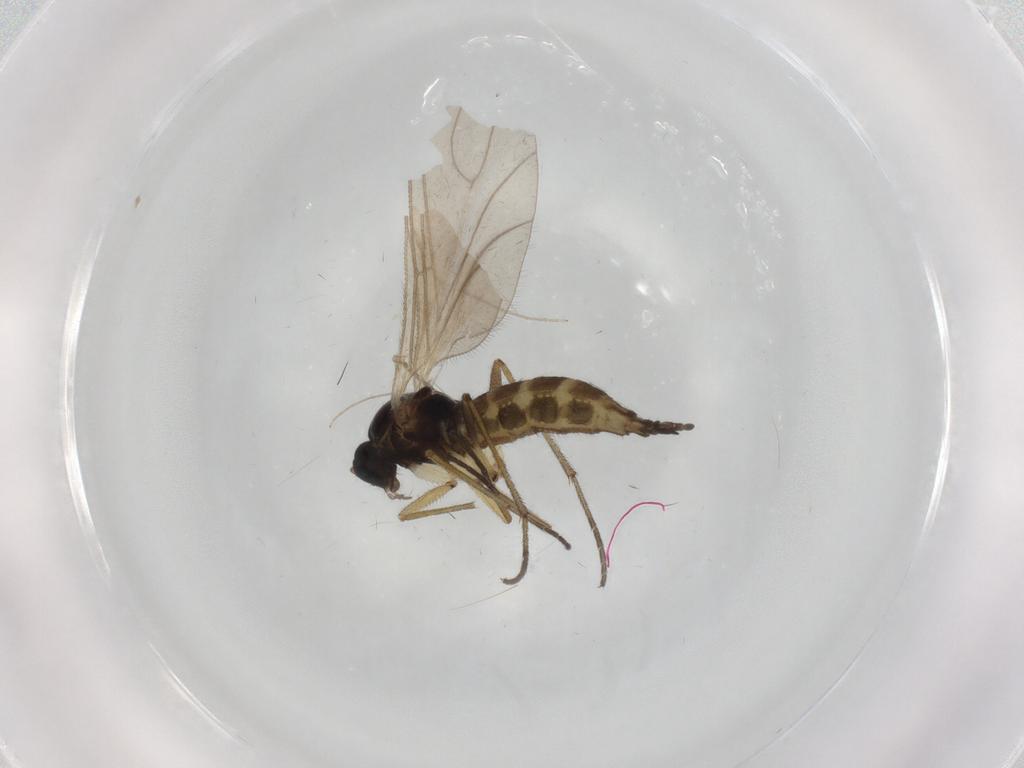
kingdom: Animalia
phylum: Arthropoda
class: Insecta
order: Diptera
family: Sciaridae
